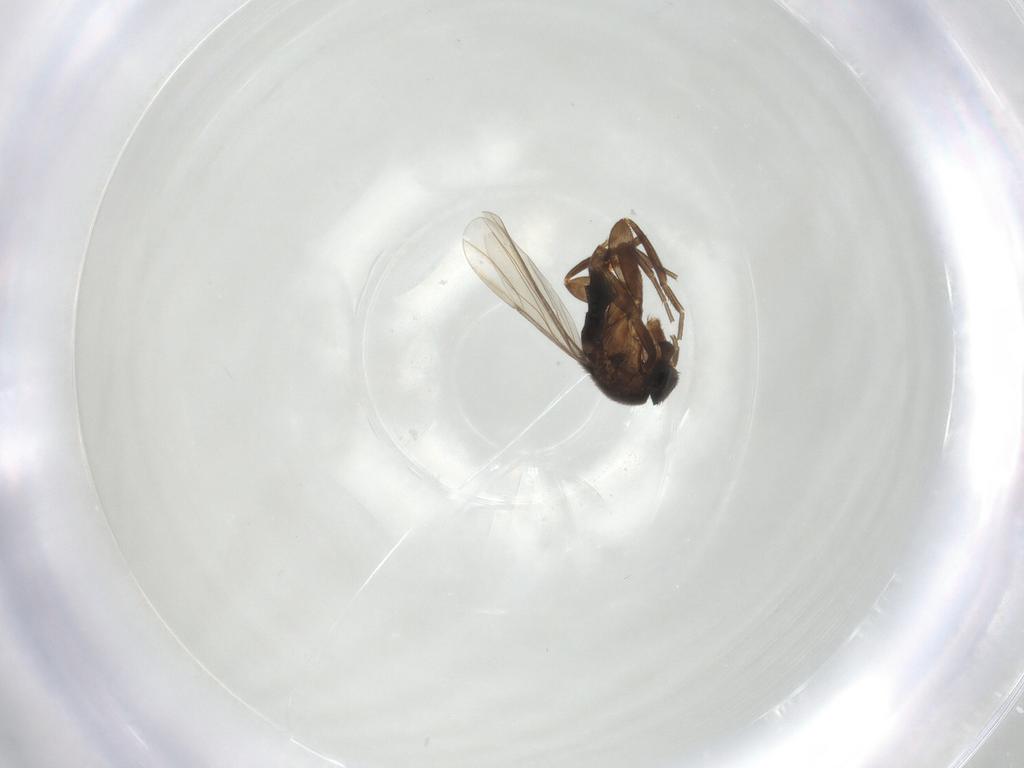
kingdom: Animalia
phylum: Arthropoda
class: Insecta
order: Diptera
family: Phoridae
